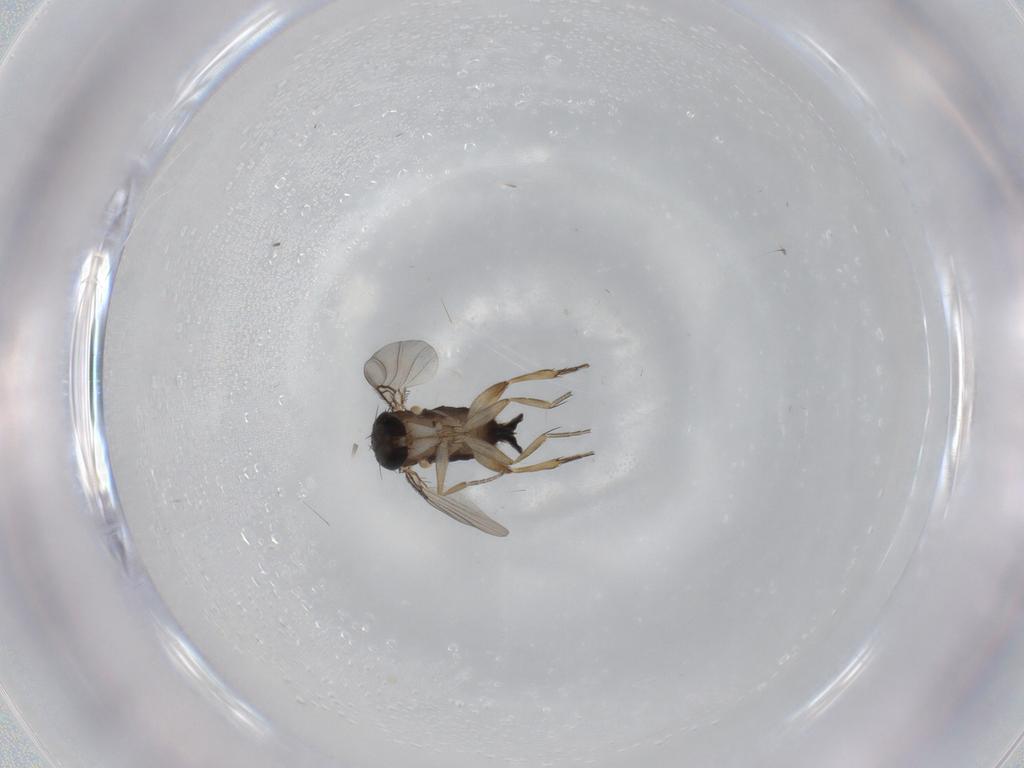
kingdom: Animalia
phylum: Arthropoda
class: Insecta
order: Diptera
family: Phoridae
